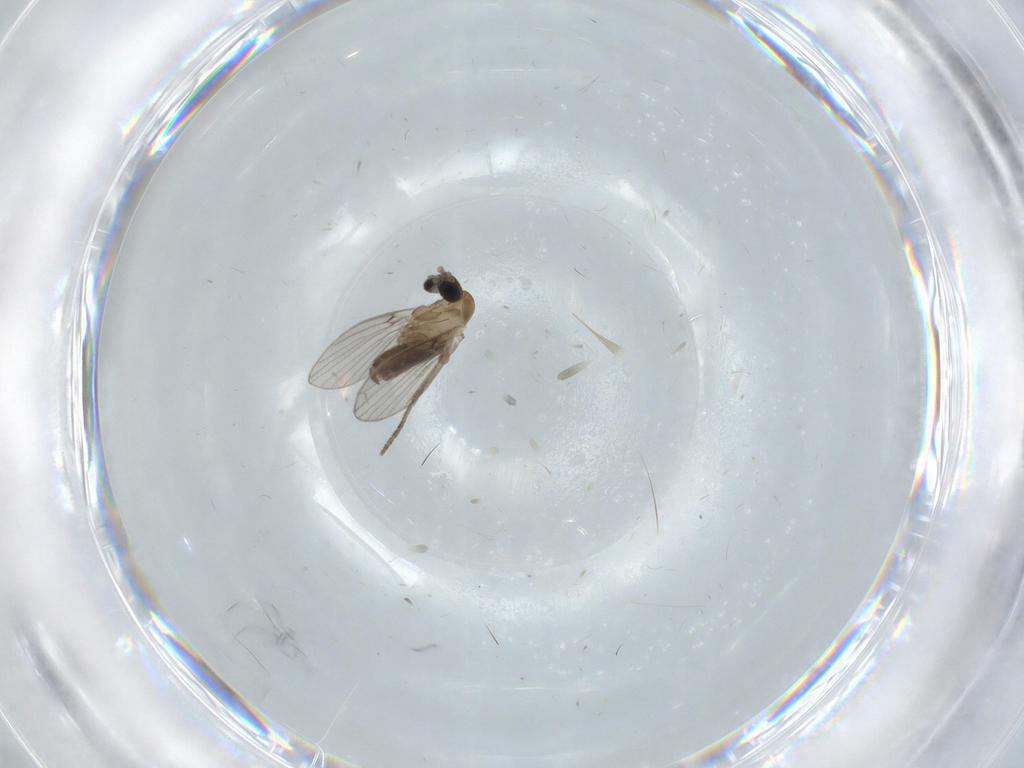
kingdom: Animalia
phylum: Arthropoda
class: Insecta
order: Diptera
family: Psychodidae
